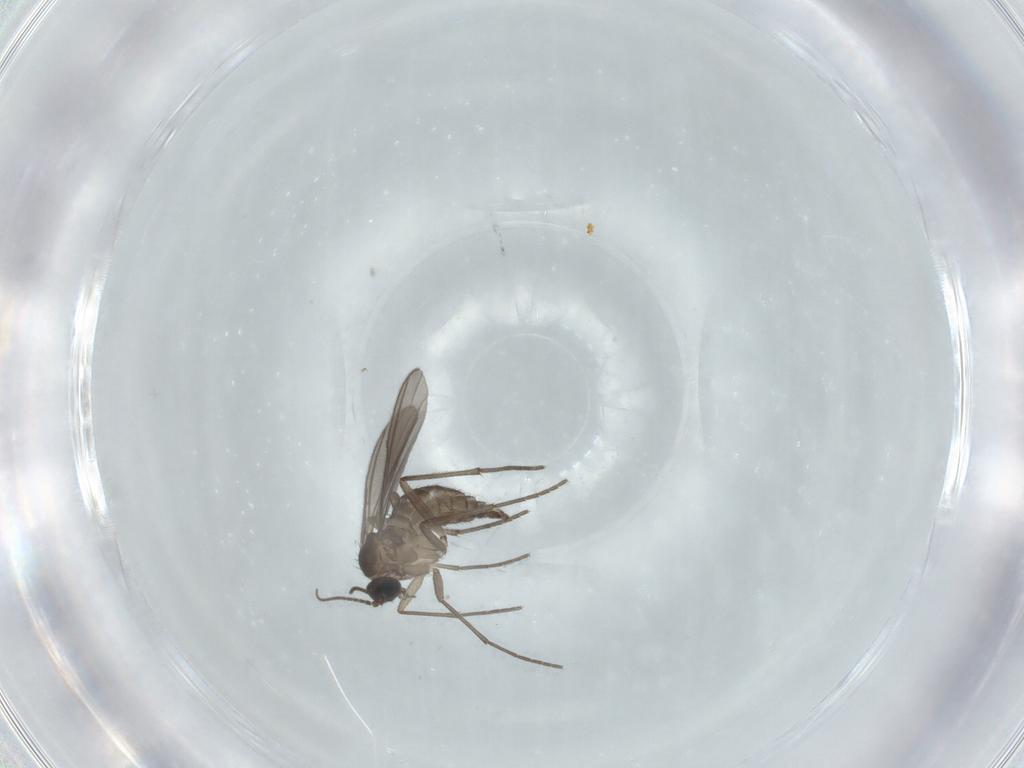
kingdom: Animalia
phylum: Arthropoda
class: Insecta
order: Diptera
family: Sciaridae
